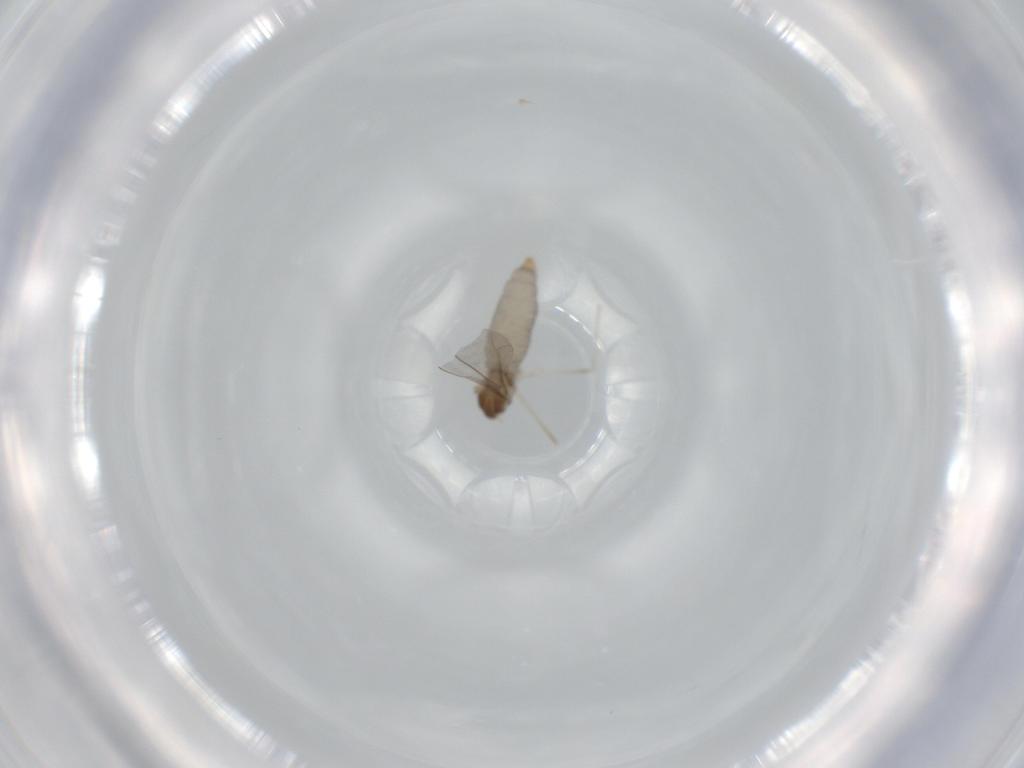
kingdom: Animalia
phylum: Arthropoda
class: Insecta
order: Diptera
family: Cecidomyiidae
